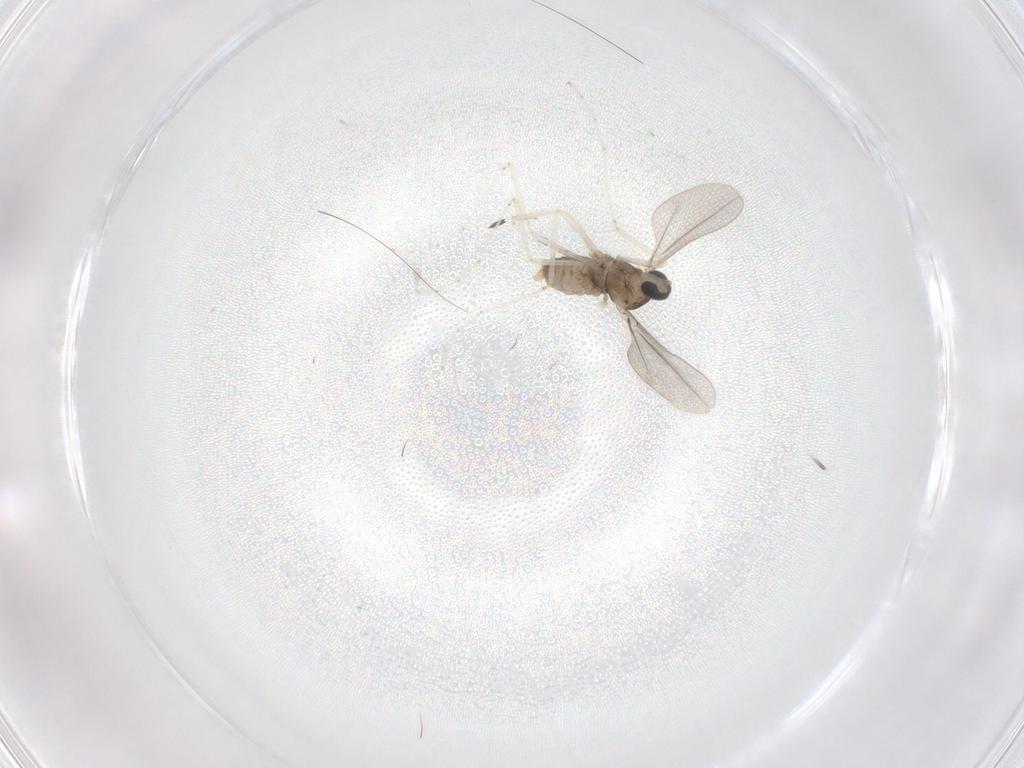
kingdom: Animalia
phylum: Arthropoda
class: Insecta
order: Diptera
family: Cecidomyiidae
